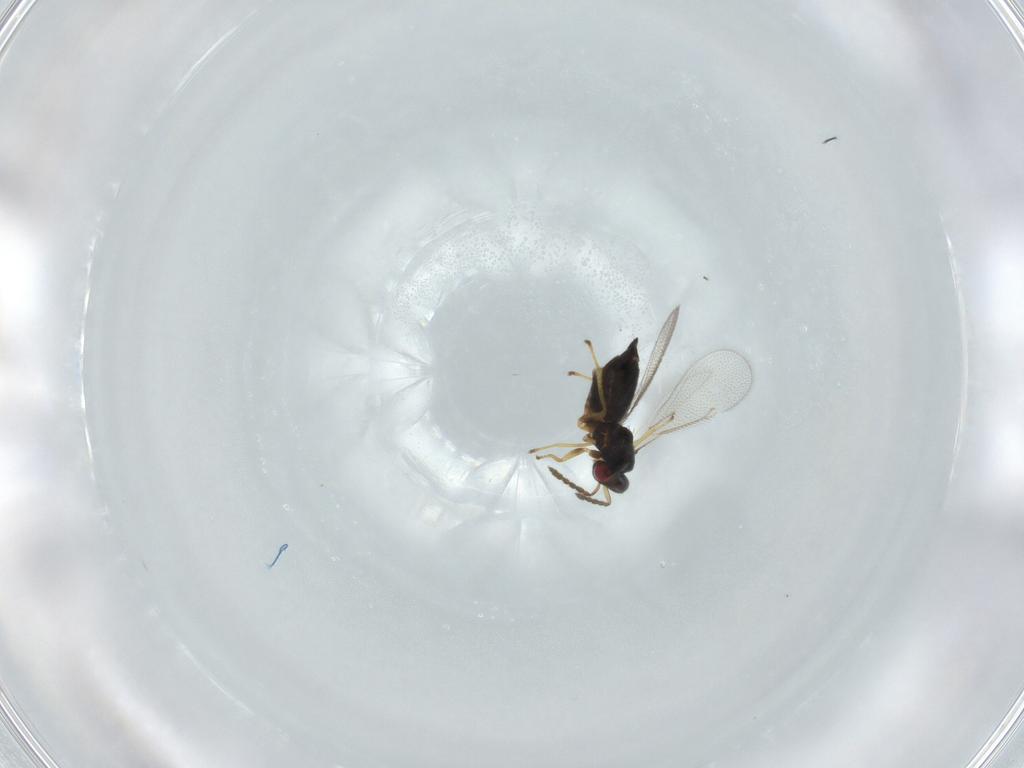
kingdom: Animalia
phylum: Arthropoda
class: Insecta
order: Hymenoptera
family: Eulophidae
